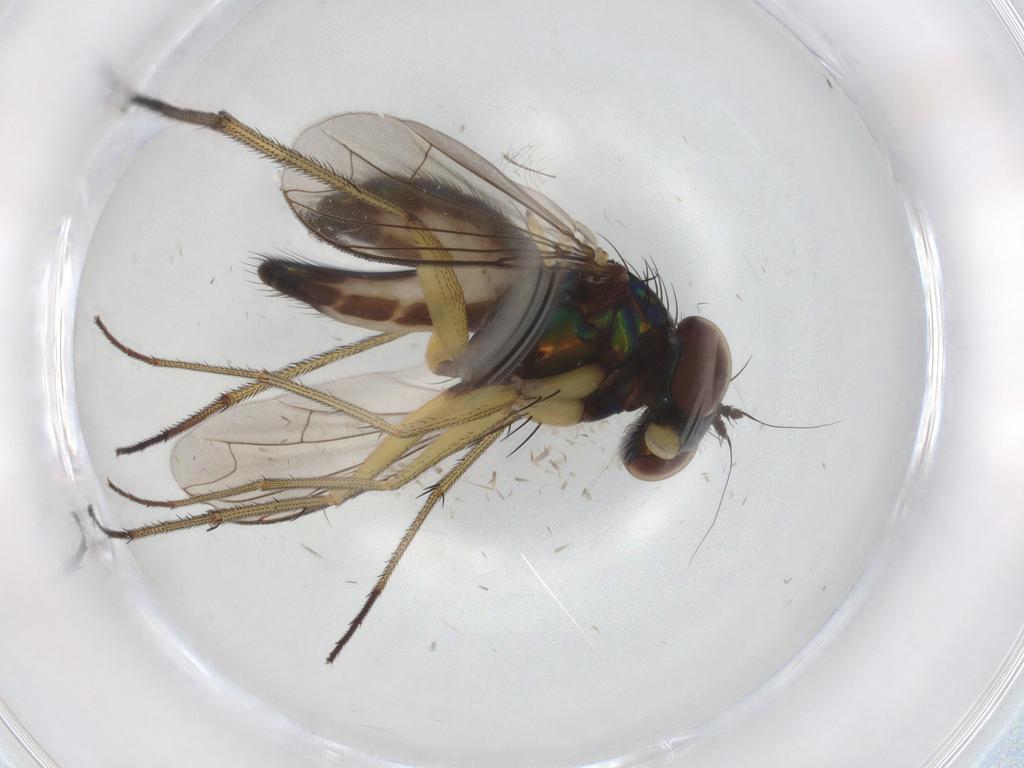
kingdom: Animalia
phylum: Arthropoda
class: Insecta
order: Diptera
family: Dolichopodidae
